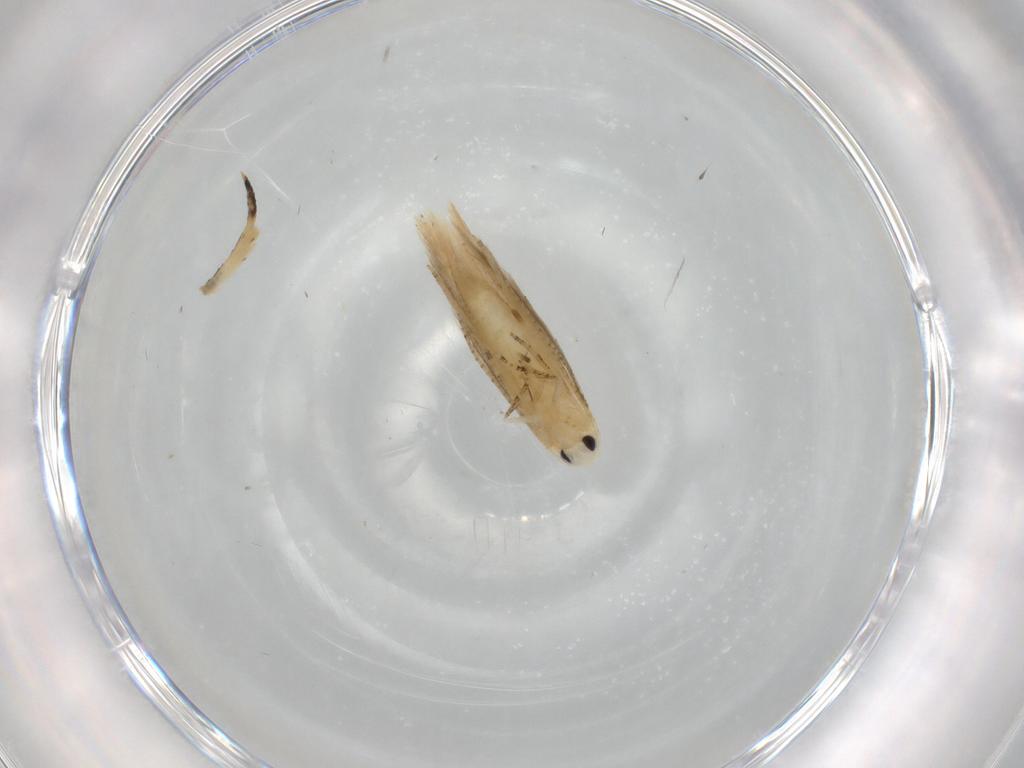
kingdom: Animalia
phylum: Arthropoda
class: Insecta
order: Lepidoptera
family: Bucculatricidae
